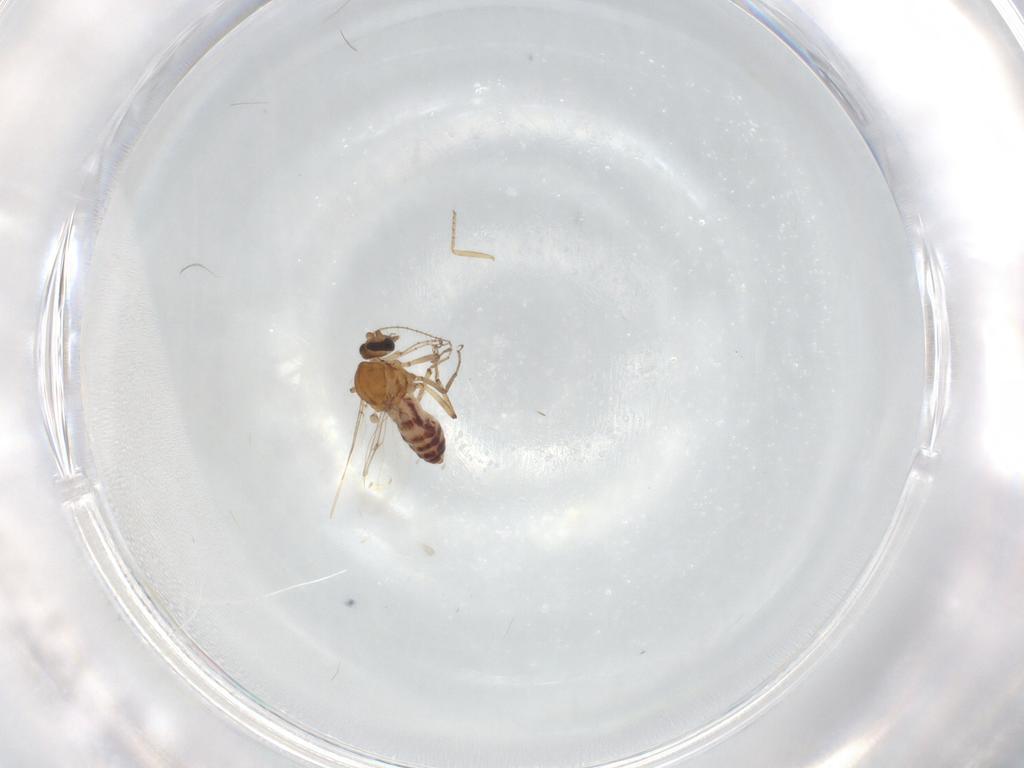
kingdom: Animalia
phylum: Arthropoda
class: Insecta
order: Diptera
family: Ceratopogonidae
